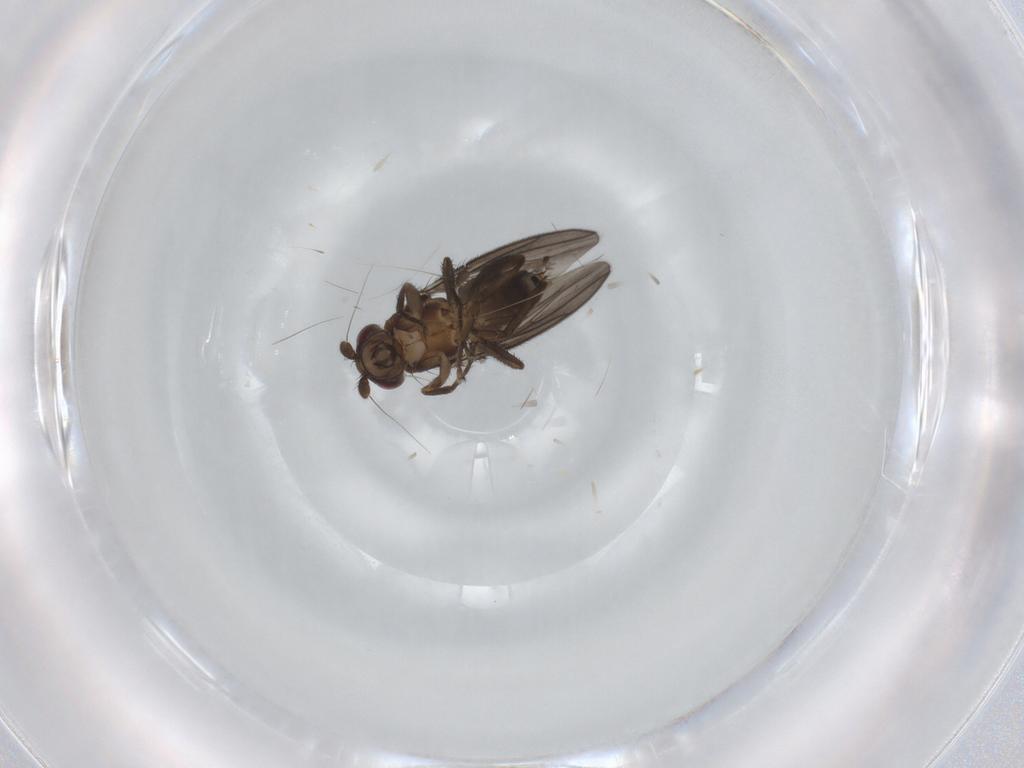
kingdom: Animalia
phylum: Arthropoda
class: Insecta
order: Diptera
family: Sphaeroceridae
